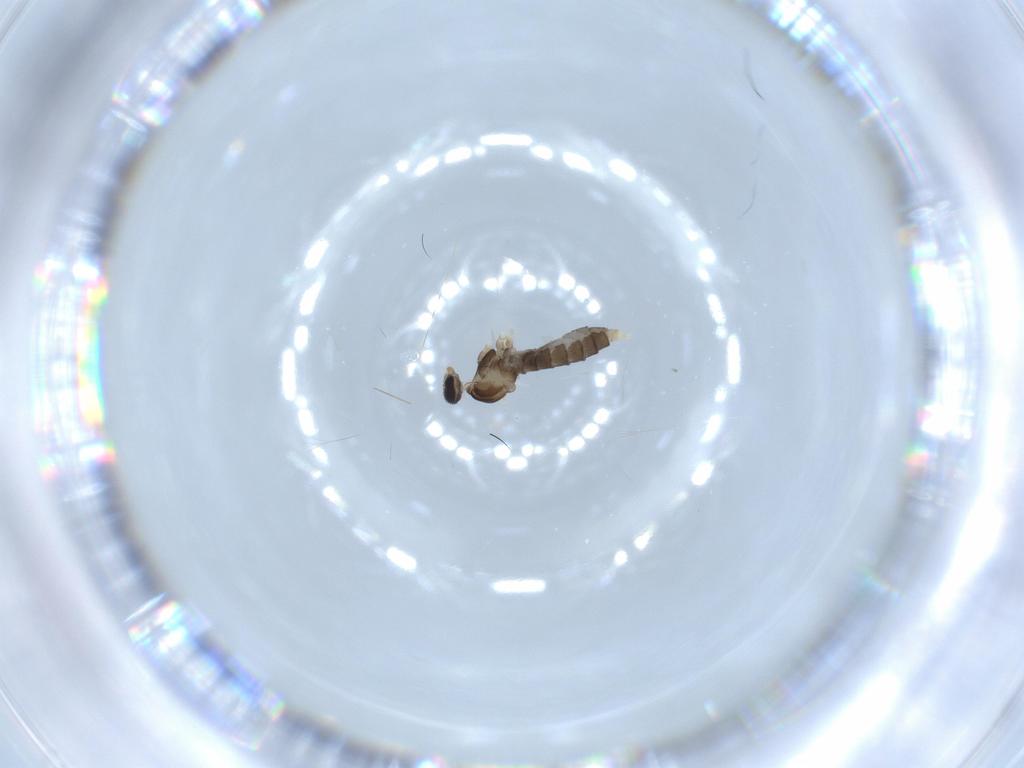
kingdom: Animalia
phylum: Arthropoda
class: Insecta
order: Diptera
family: Cecidomyiidae
